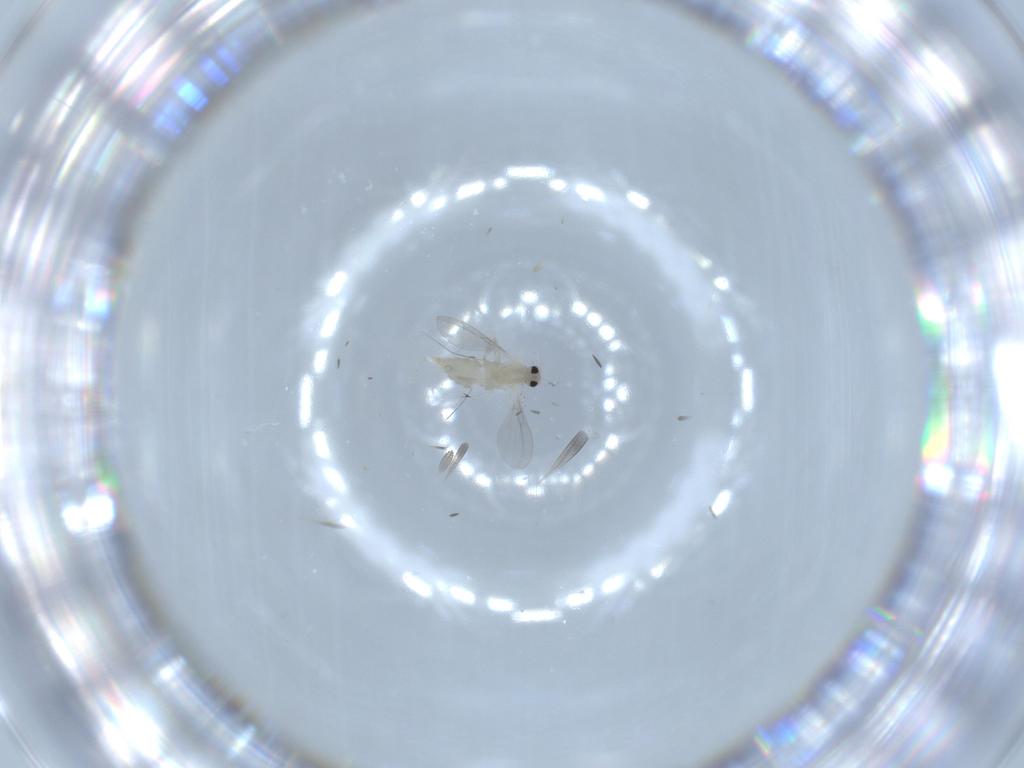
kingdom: Animalia
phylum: Arthropoda
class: Insecta
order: Diptera
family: Cecidomyiidae
